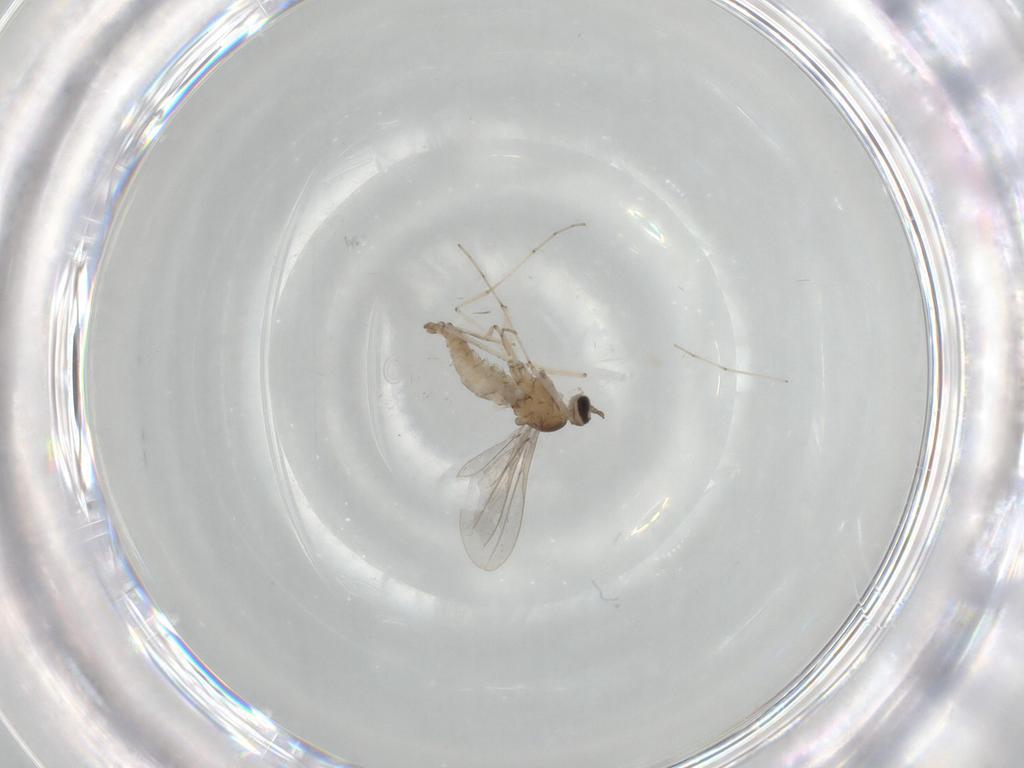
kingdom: Animalia
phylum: Arthropoda
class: Insecta
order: Diptera
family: Cecidomyiidae
